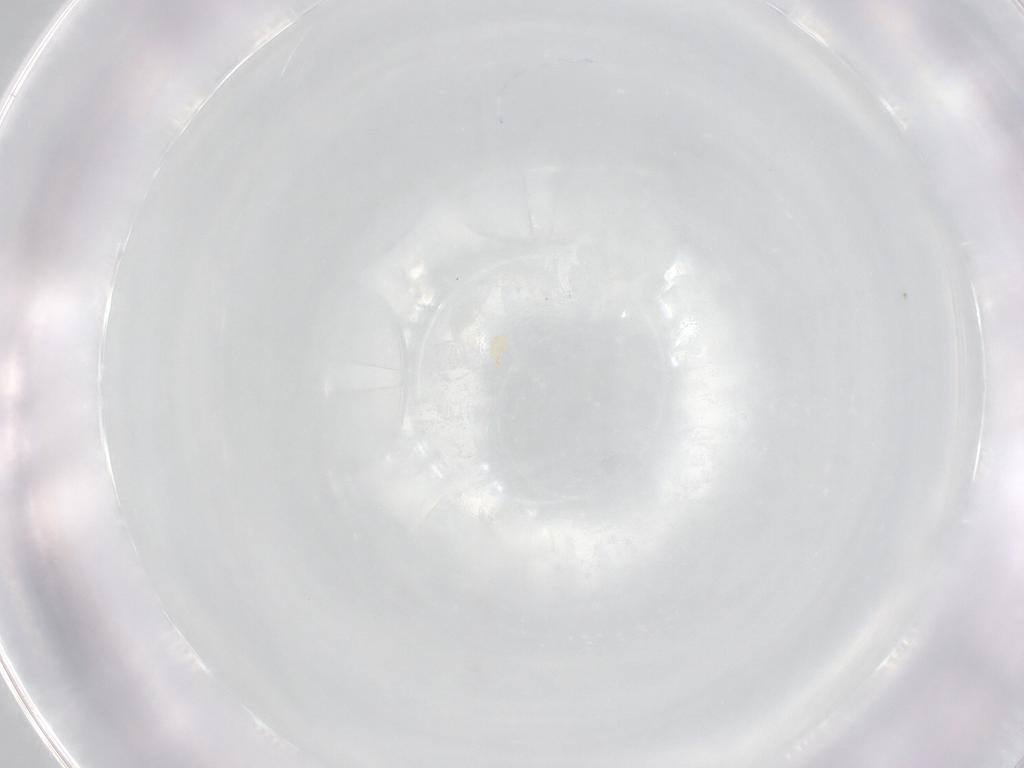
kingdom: Animalia
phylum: Arthropoda
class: Arachnida
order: Trombidiformes
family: Pygmephoridae
